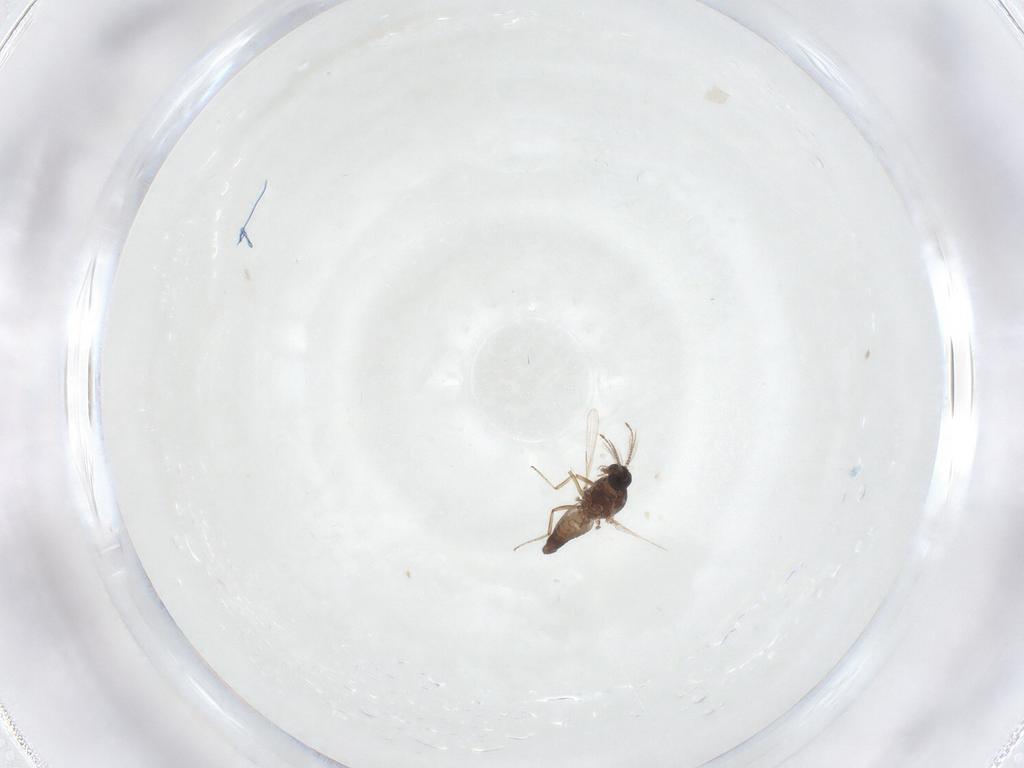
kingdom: Animalia
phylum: Arthropoda
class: Insecta
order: Diptera
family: Ceratopogonidae
